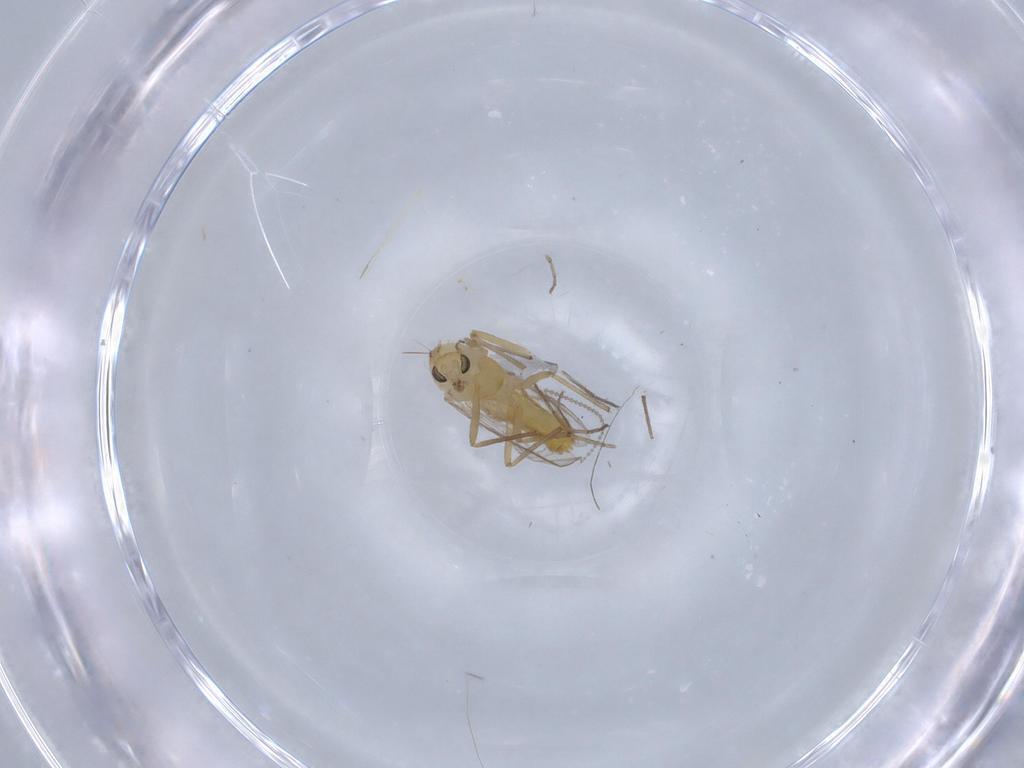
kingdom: Animalia
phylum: Arthropoda
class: Insecta
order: Diptera
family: Chironomidae
